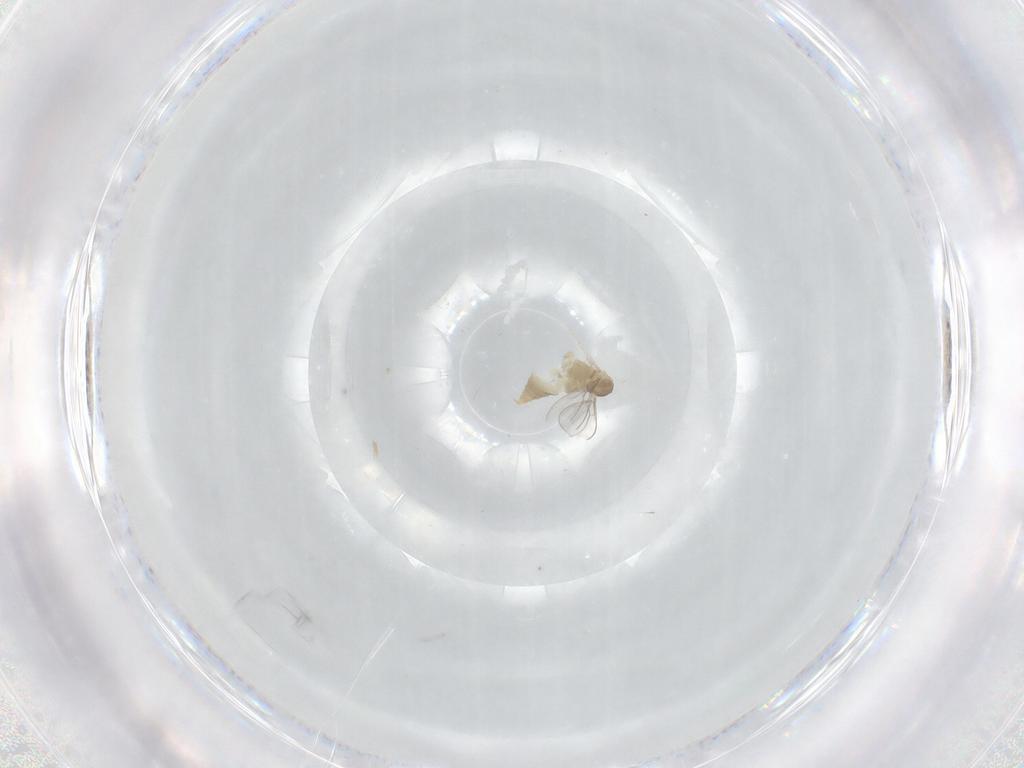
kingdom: Animalia
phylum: Arthropoda
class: Insecta
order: Diptera
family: Cecidomyiidae
